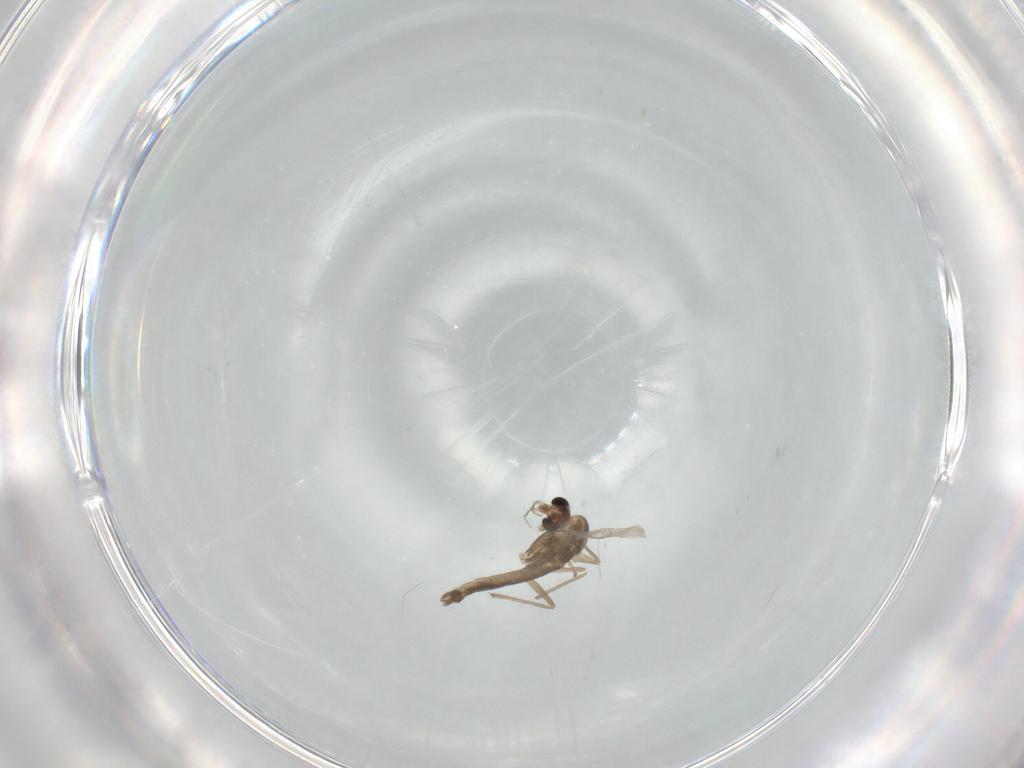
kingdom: Animalia
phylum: Arthropoda
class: Insecta
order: Diptera
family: Chironomidae
